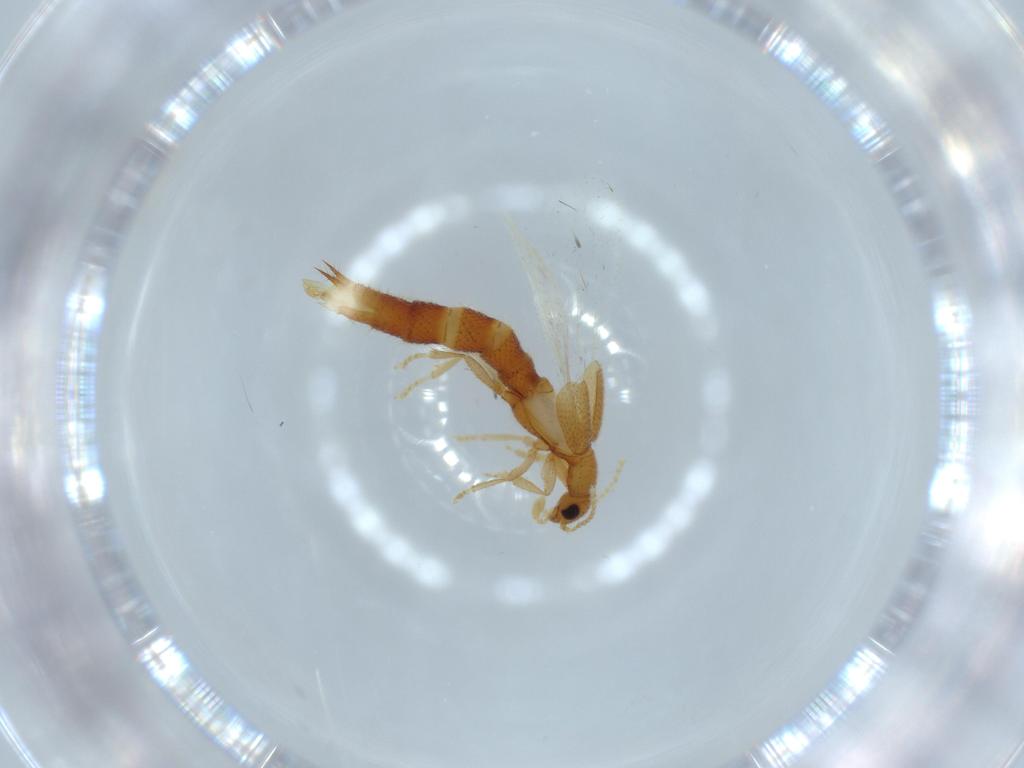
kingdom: Animalia
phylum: Arthropoda
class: Insecta
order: Coleoptera
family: Staphylinidae
